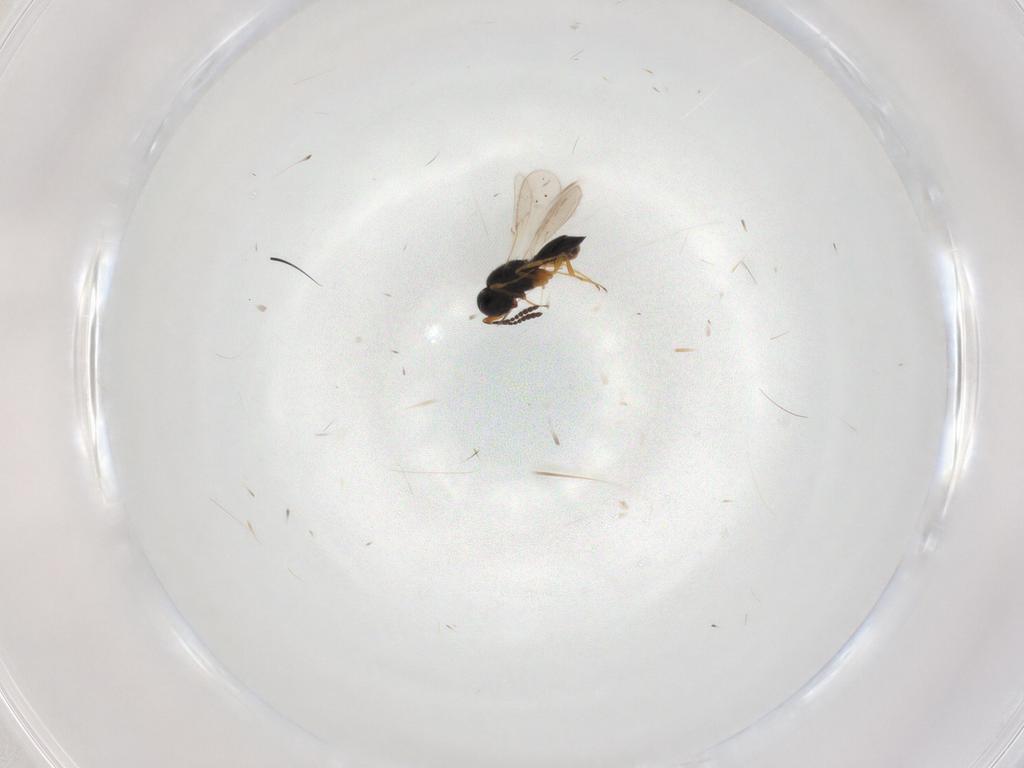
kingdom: Animalia
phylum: Arthropoda
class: Insecta
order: Hymenoptera
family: Scelionidae
